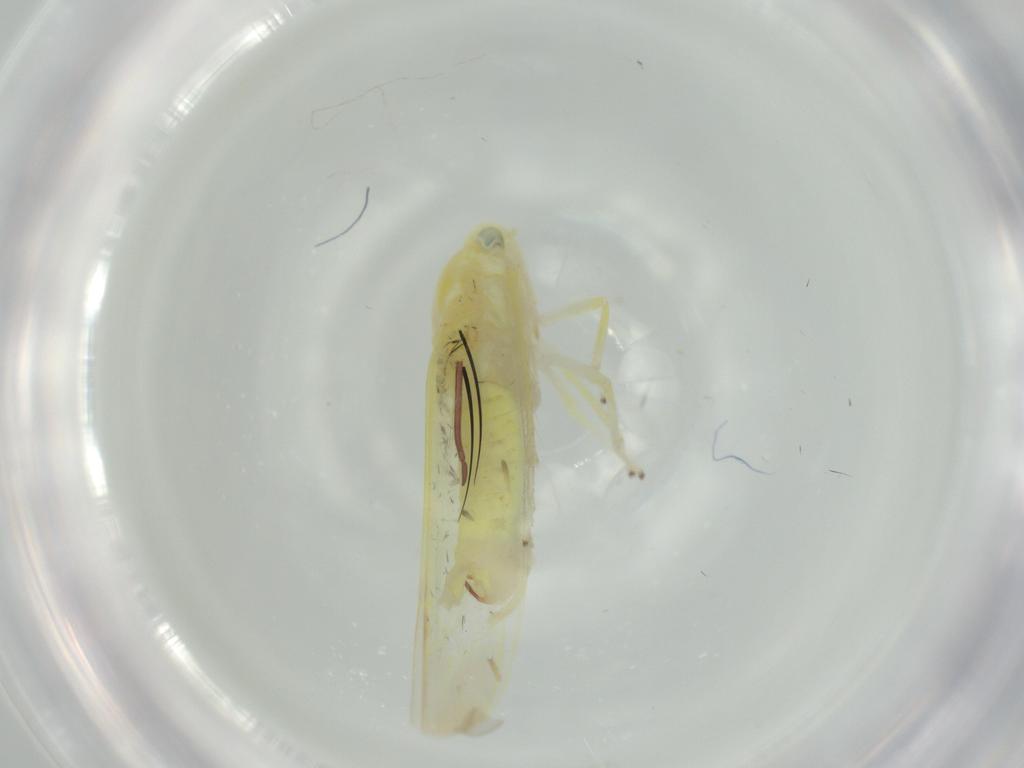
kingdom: Animalia
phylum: Arthropoda
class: Insecta
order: Hemiptera
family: Cicadellidae
